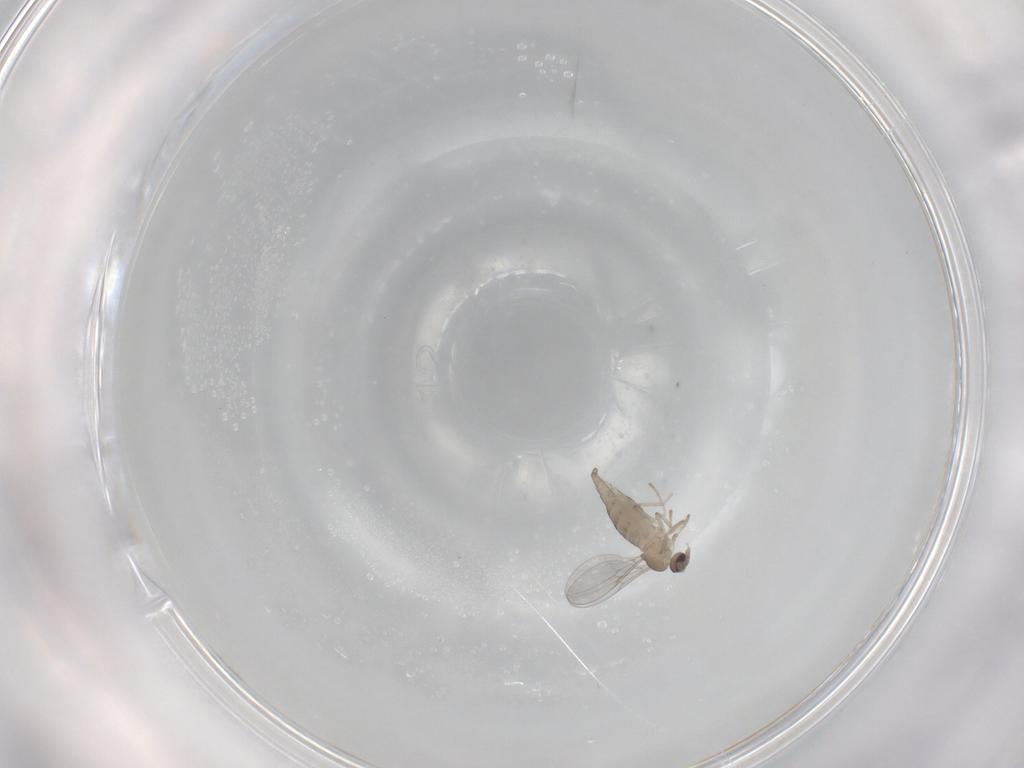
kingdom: Animalia
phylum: Arthropoda
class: Insecta
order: Diptera
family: Cecidomyiidae
